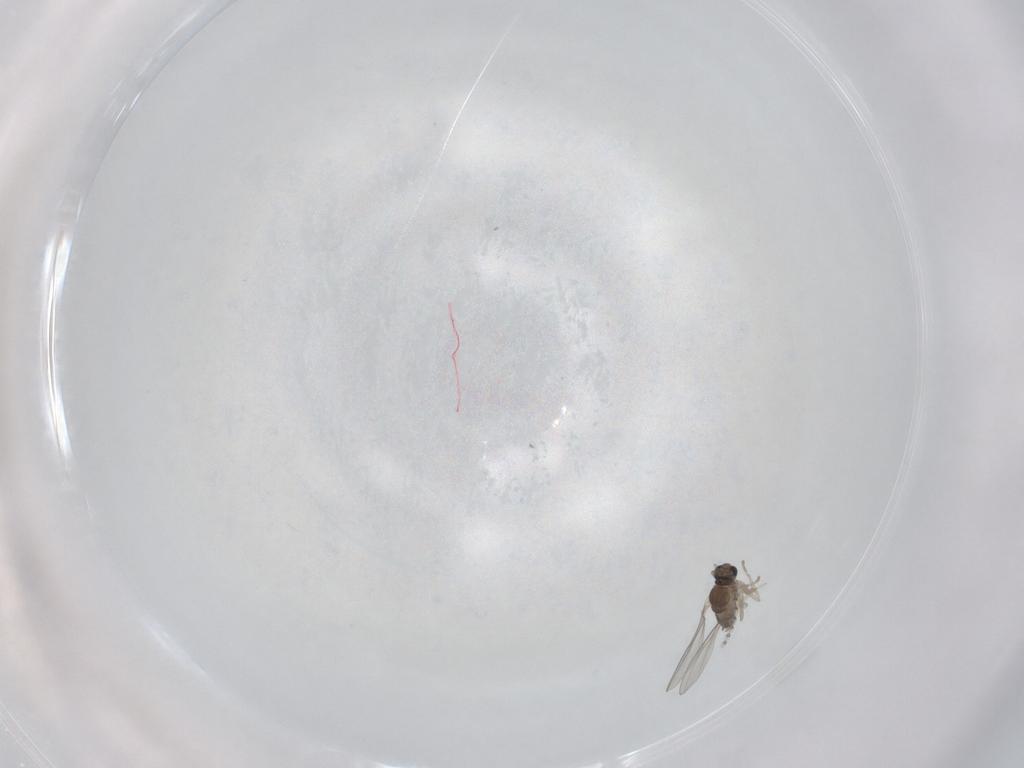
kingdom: Animalia
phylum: Arthropoda
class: Insecta
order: Diptera
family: Cecidomyiidae
